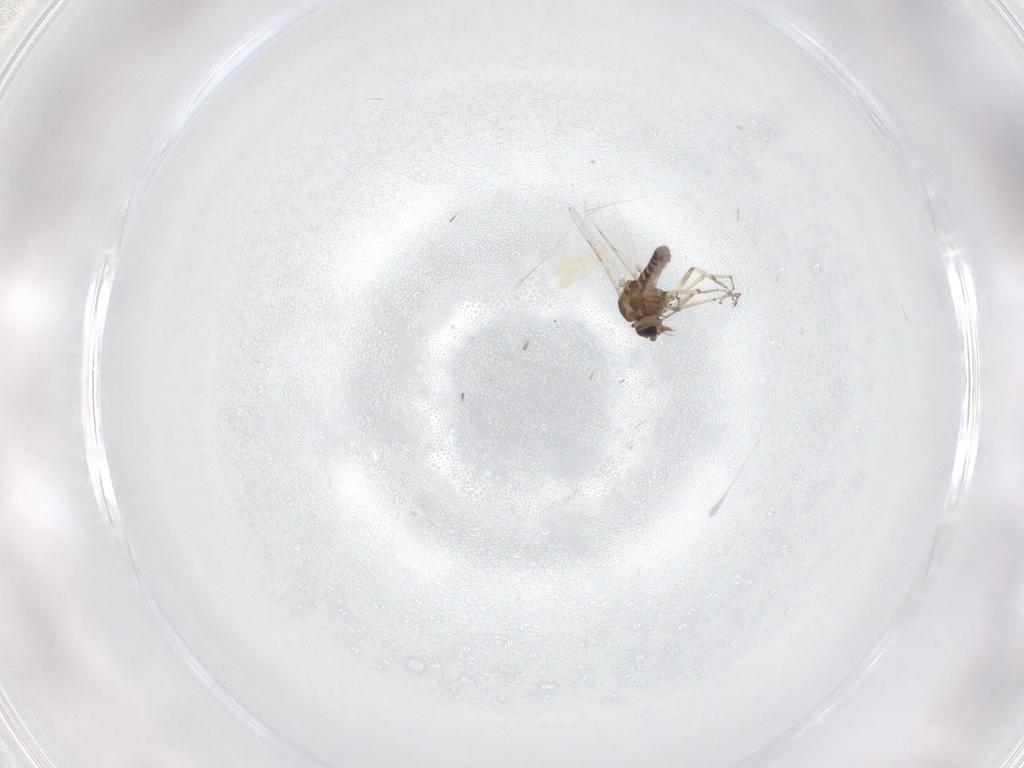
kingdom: Animalia
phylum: Arthropoda
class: Insecta
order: Diptera
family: Ceratopogonidae
